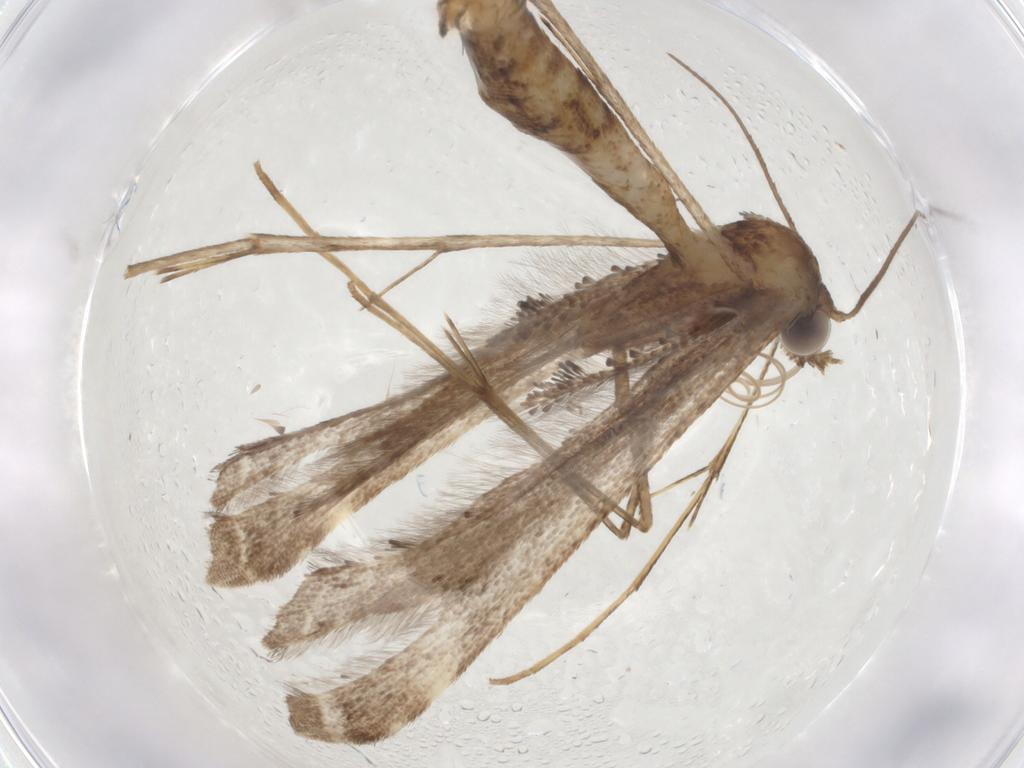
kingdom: Animalia
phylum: Arthropoda
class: Insecta
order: Lepidoptera
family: Pterophoridae
